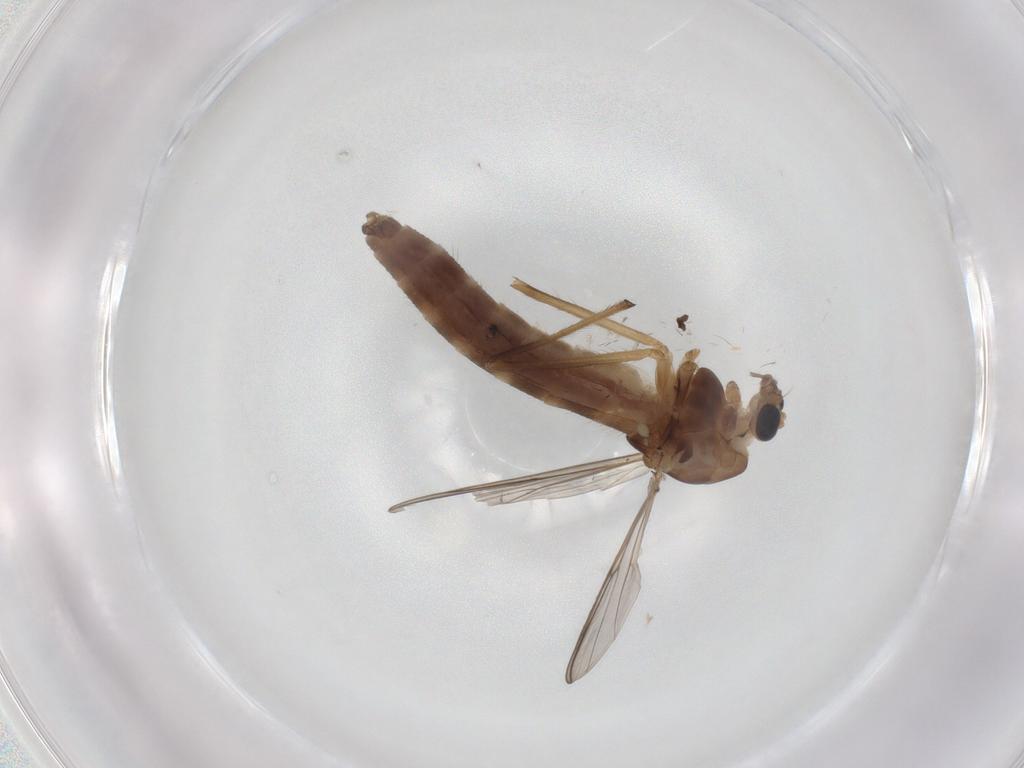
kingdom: Animalia
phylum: Arthropoda
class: Insecta
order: Diptera
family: Chironomidae
